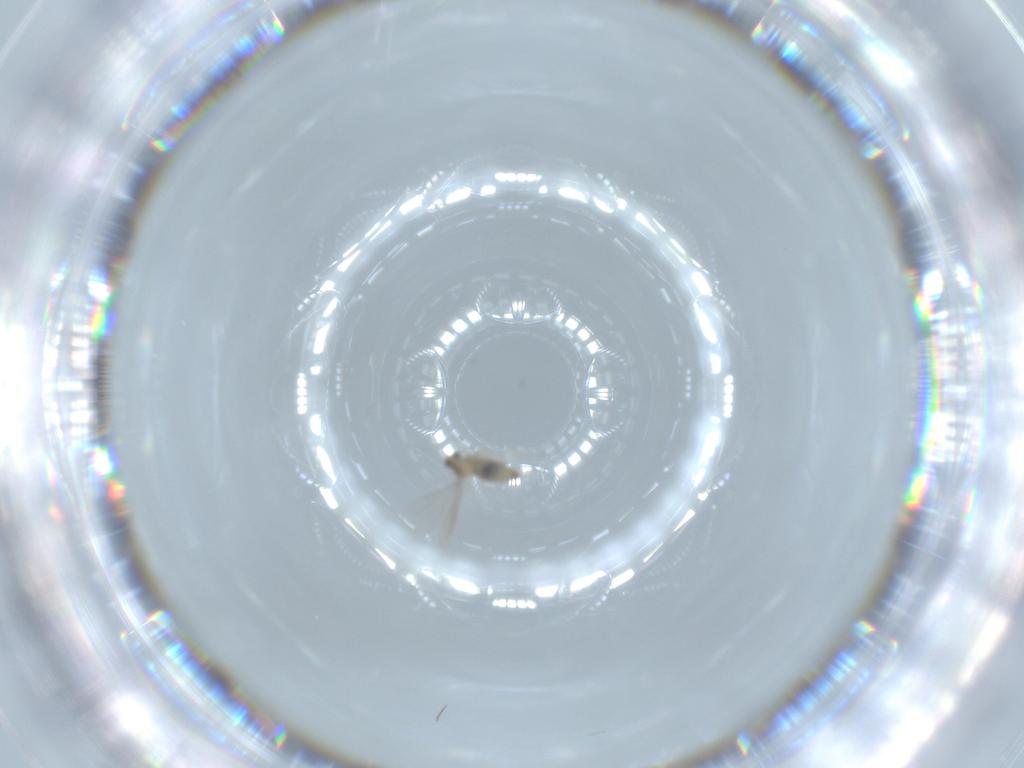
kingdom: Animalia
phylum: Arthropoda
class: Insecta
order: Diptera
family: Cecidomyiidae
